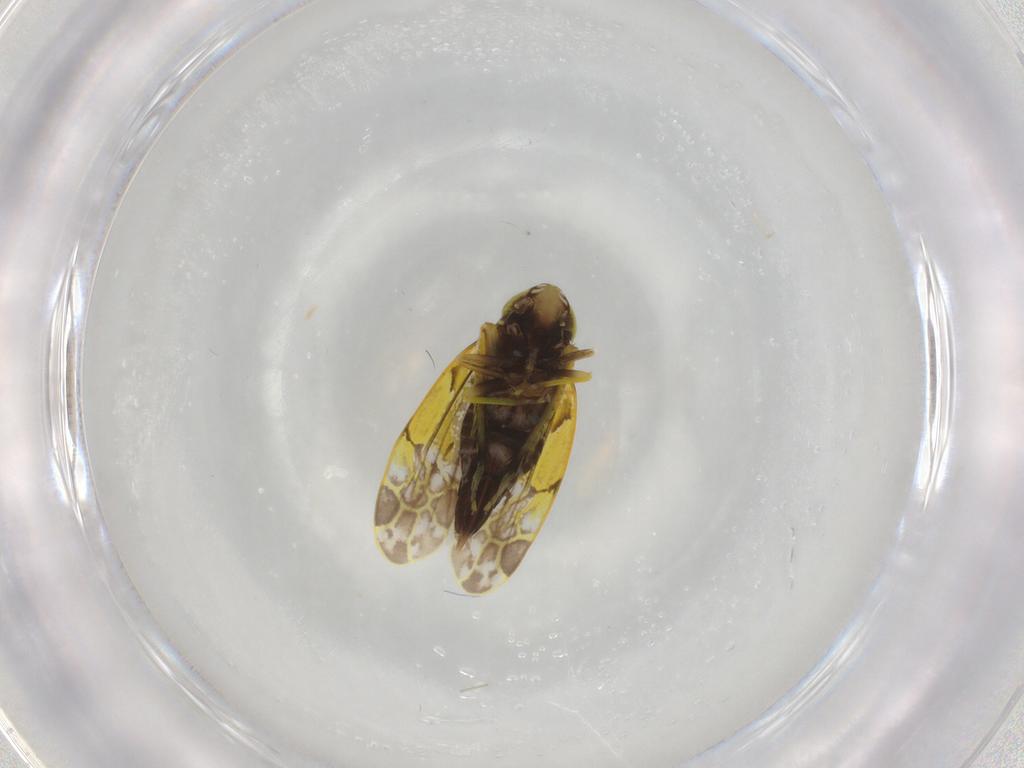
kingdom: Animalia
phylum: Arthropoda
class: Insecta
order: Hemiptera
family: Cicadellidae
